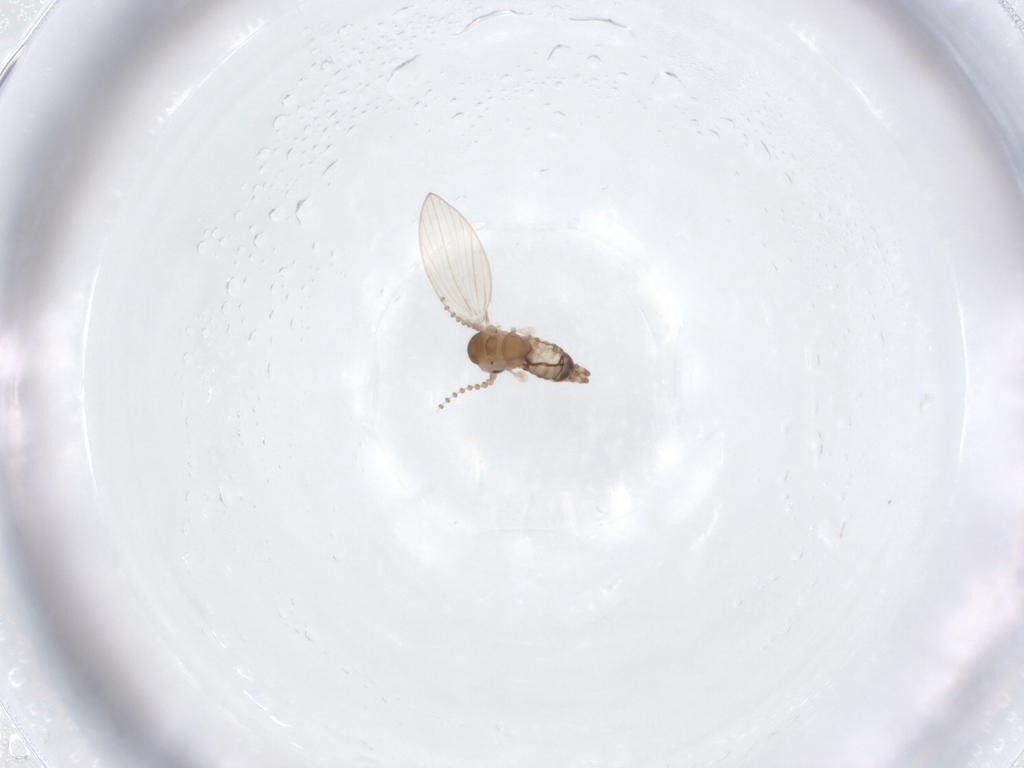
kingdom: Animalia
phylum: Arthropoda
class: Insecta
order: Diptera
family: Psychodidae
